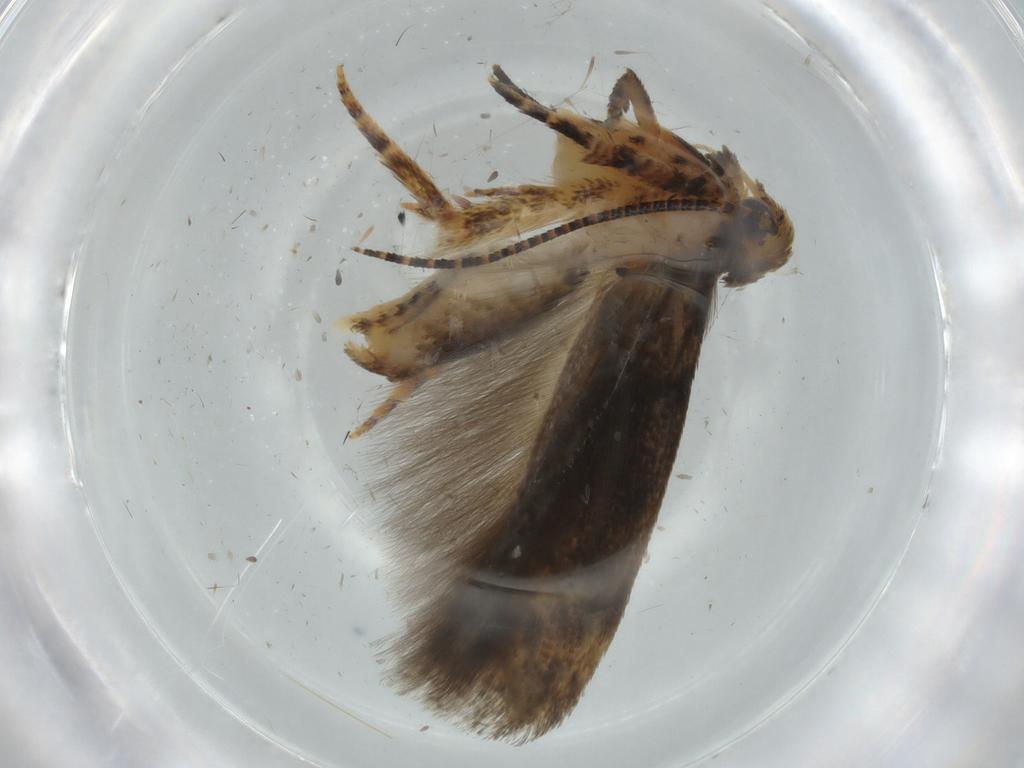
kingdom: Animalia
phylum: Arthropoda
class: Insecta
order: Lepidoptera
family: Gelechiidae
